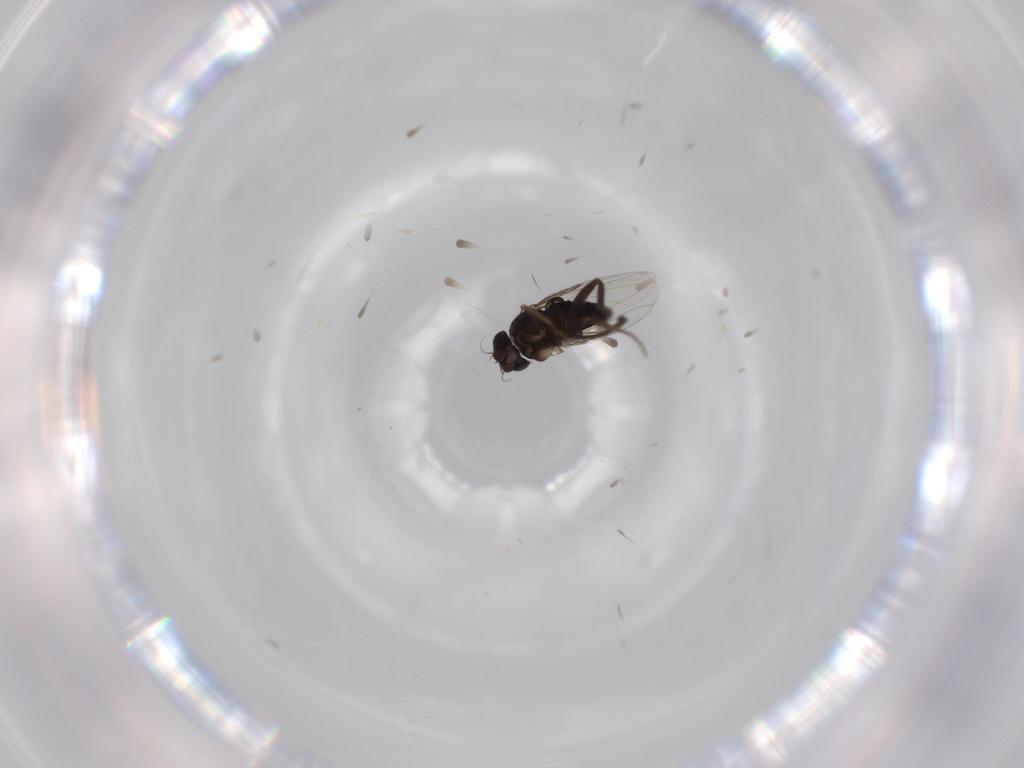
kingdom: Animalia
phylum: Arthropoda
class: Insecta
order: Diptera
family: Phoridae
